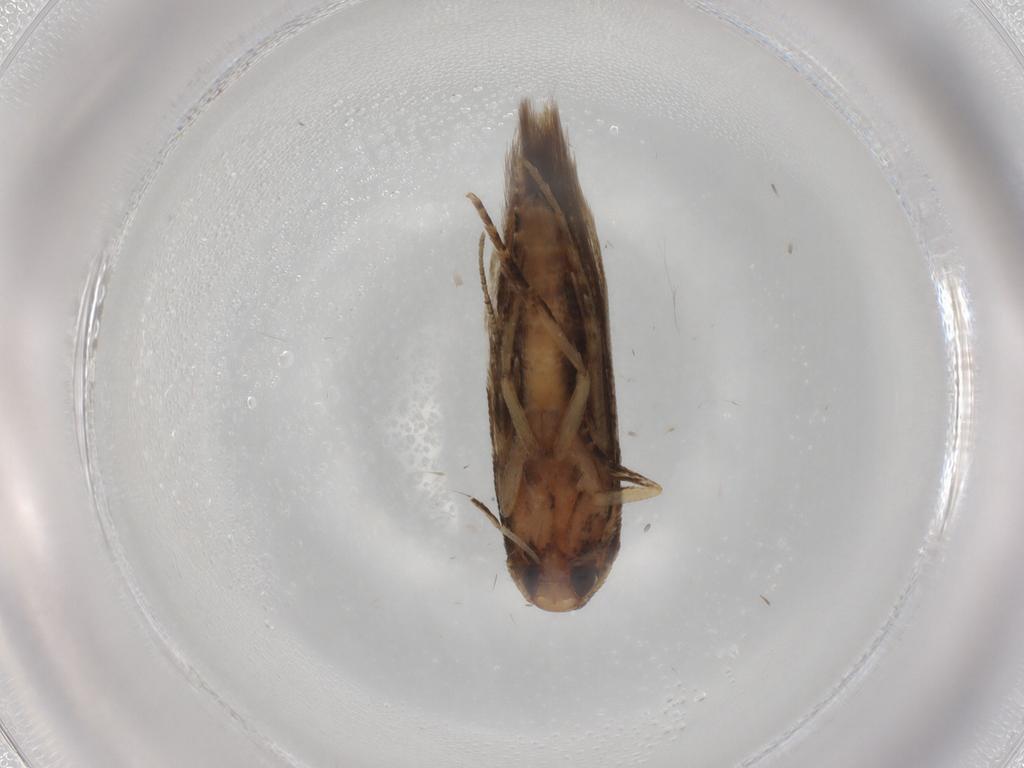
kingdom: Animalia
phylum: Arthropoda
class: Insecta
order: Lepidoptera
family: Cosmopterigidae
